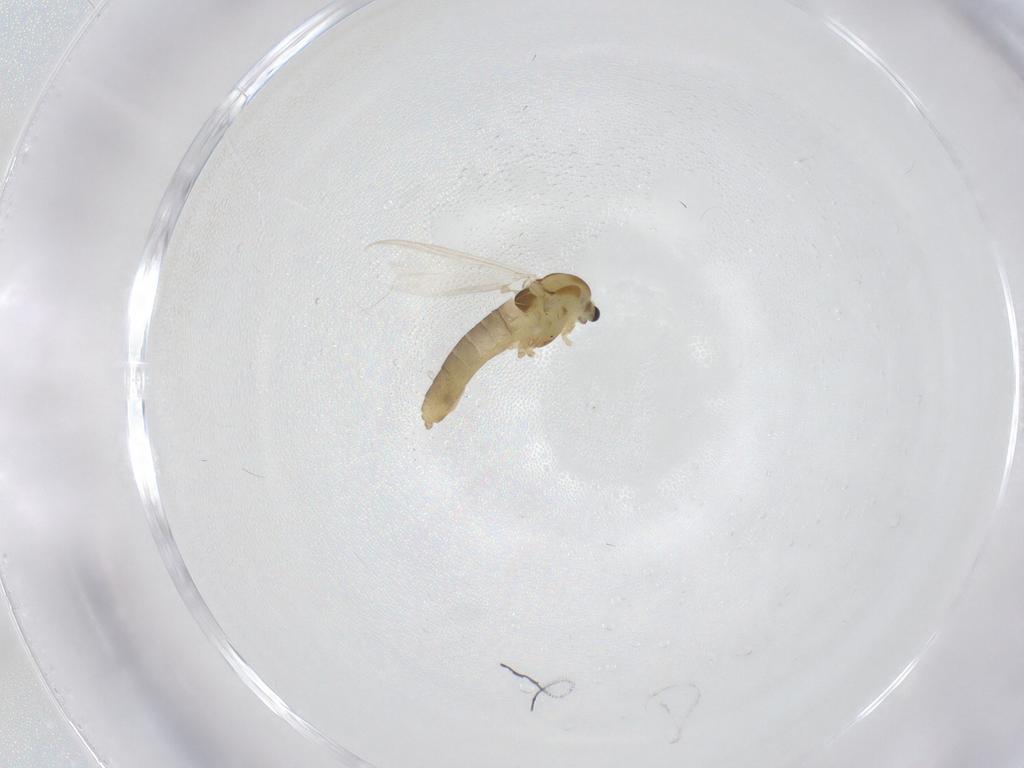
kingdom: Animalia
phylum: Arthropoda
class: Insecta
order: Diptera
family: Chironomidae
